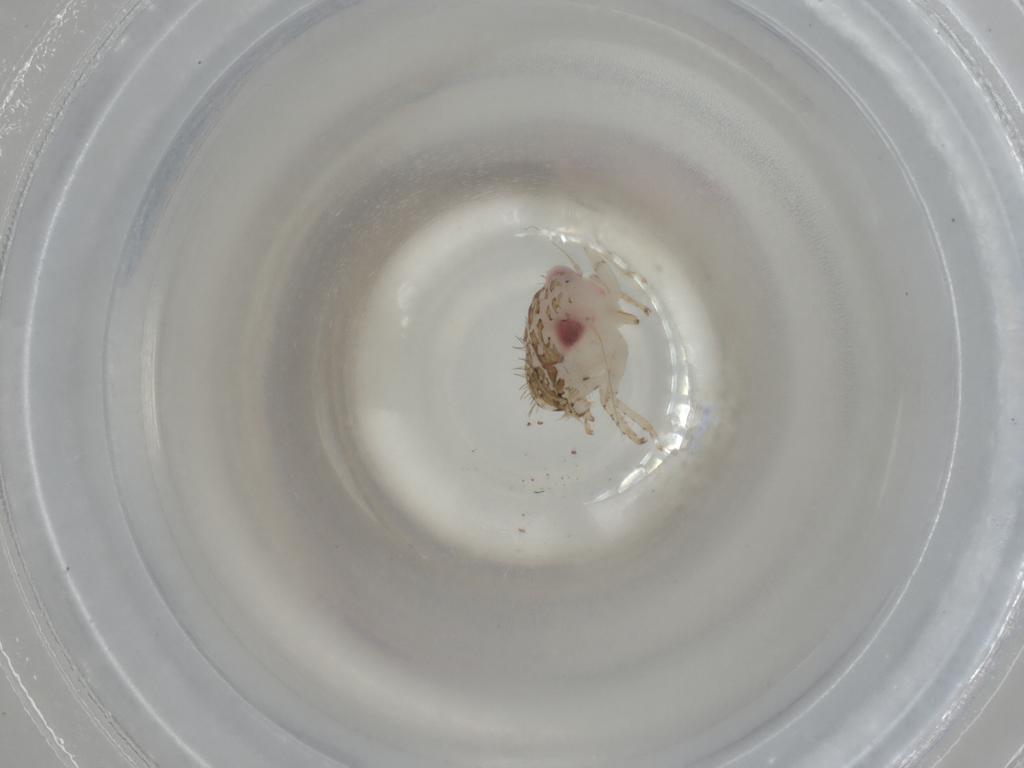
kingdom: Animalia
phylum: Arthropoda
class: Insecta
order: Hemiptera
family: Cicadellidae
